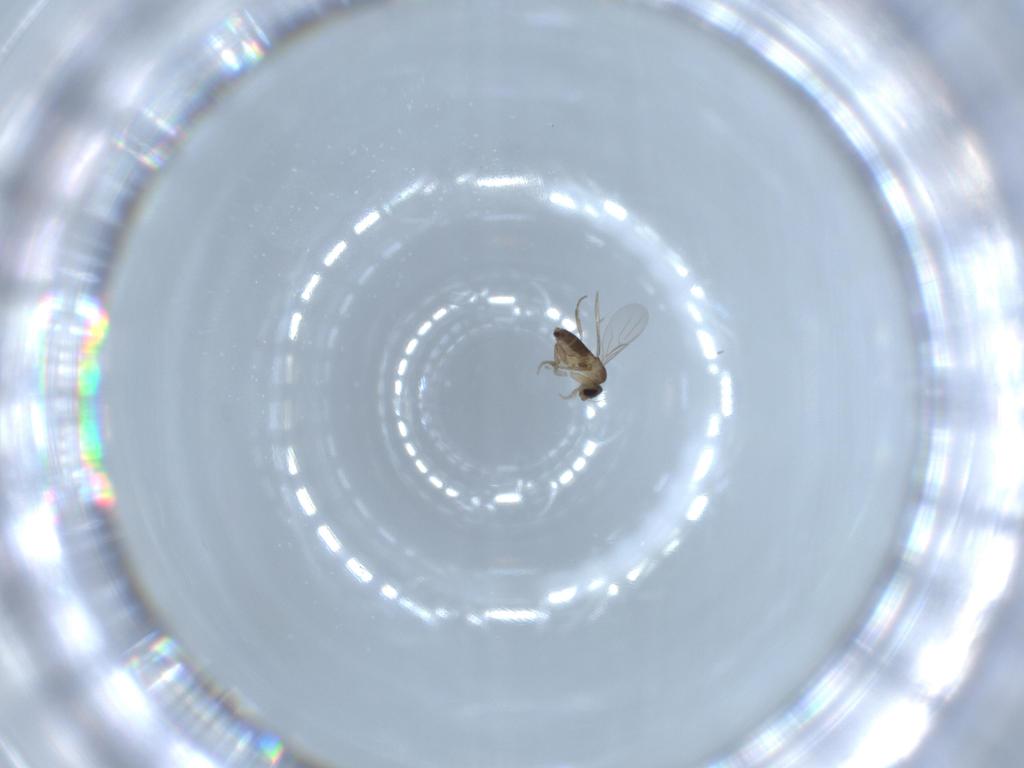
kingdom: Animalia
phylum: Arthropoda
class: Insecta
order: Diptera
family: Phoridae
